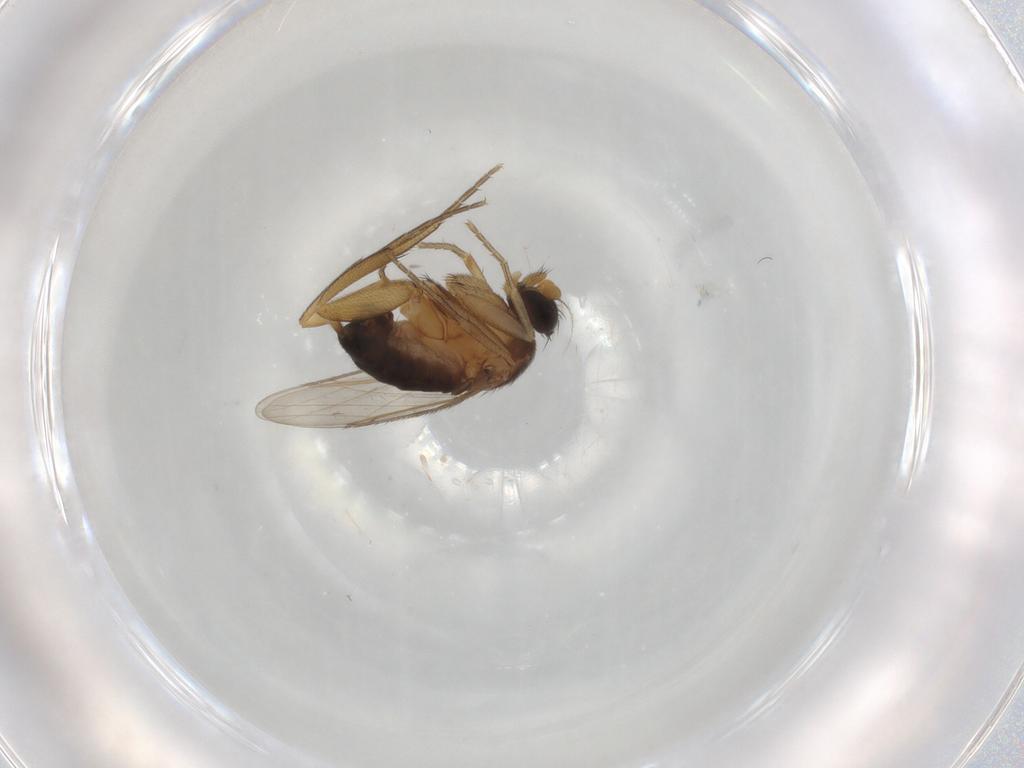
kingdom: Animalia
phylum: Arthropoda
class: Insecta
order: Diptera
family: Phoridae
